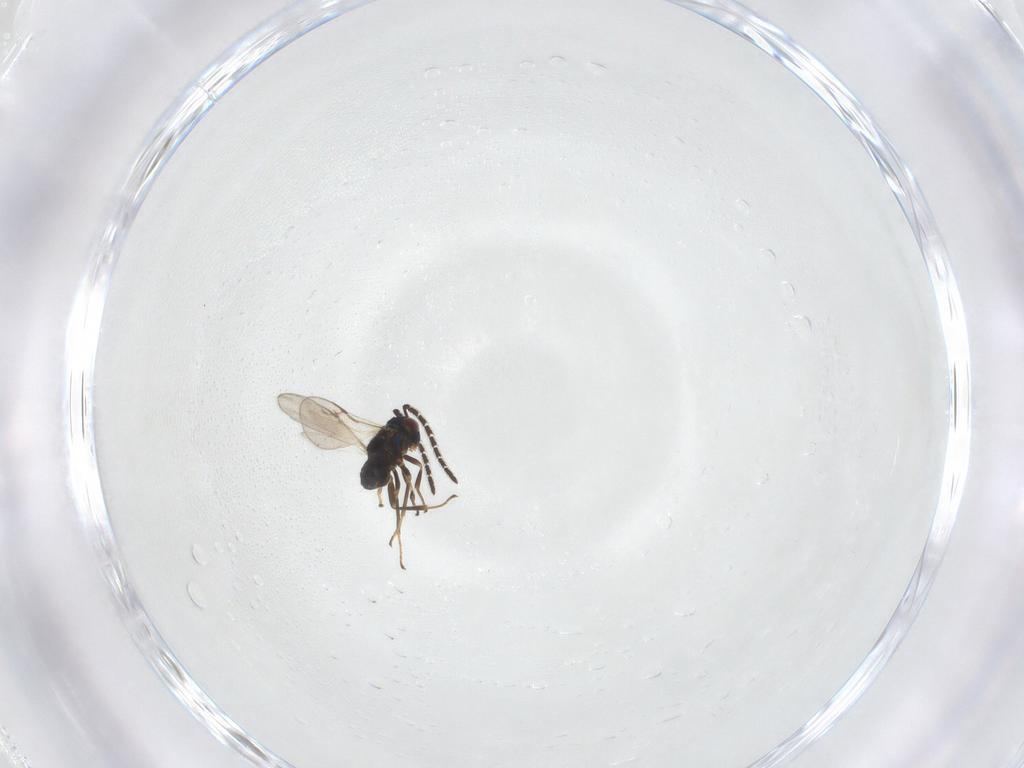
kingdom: Animalia
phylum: Arthropoda
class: Insecta
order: Hymenoptera
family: Encyrtidae
